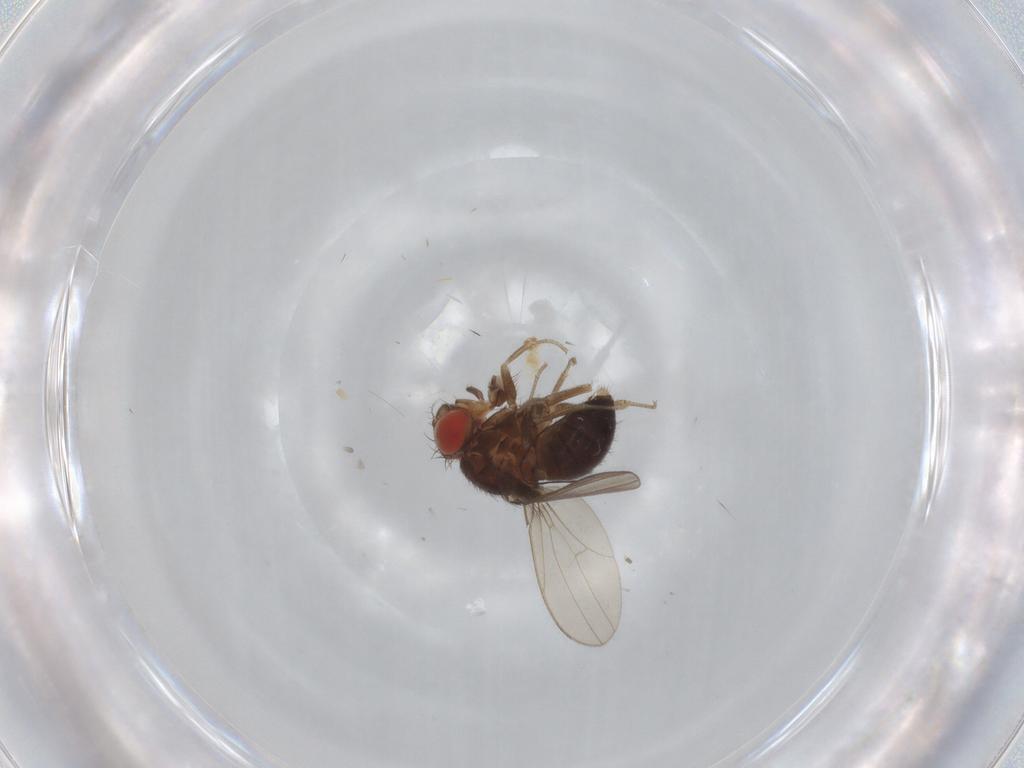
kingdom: Animalia
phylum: Arthropoda
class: Insecta
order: Diptera
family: Drosophilidae
